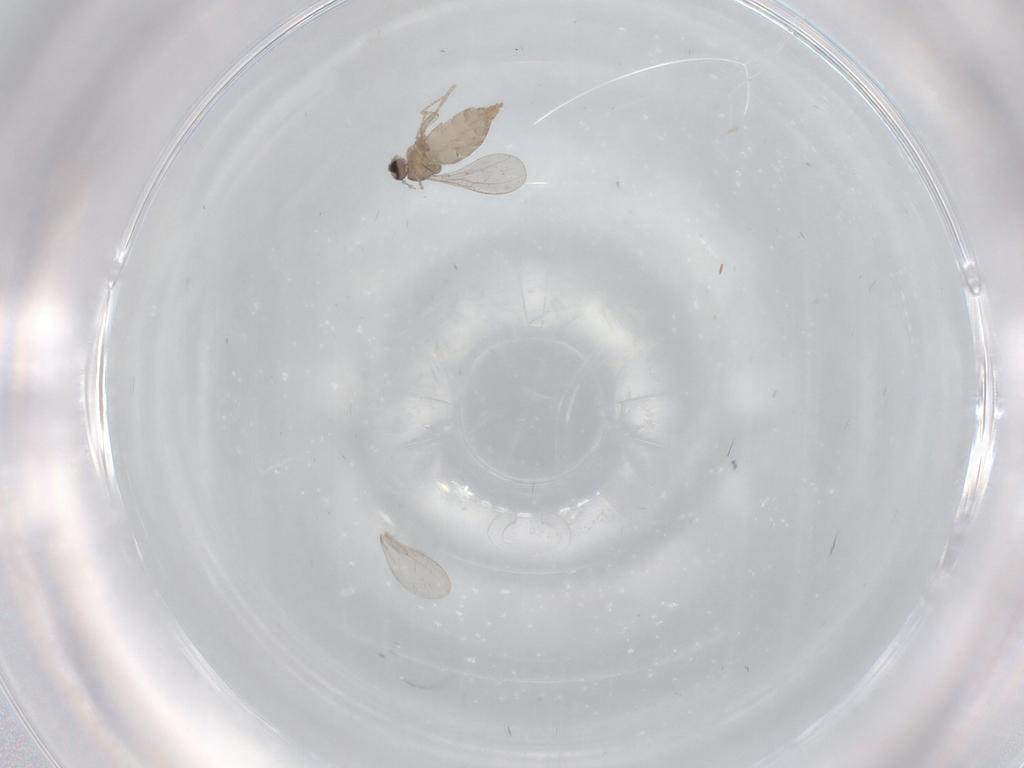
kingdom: Animalia
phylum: Arthropoda
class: Insecta
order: Diptera
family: Cecidomyiidae
